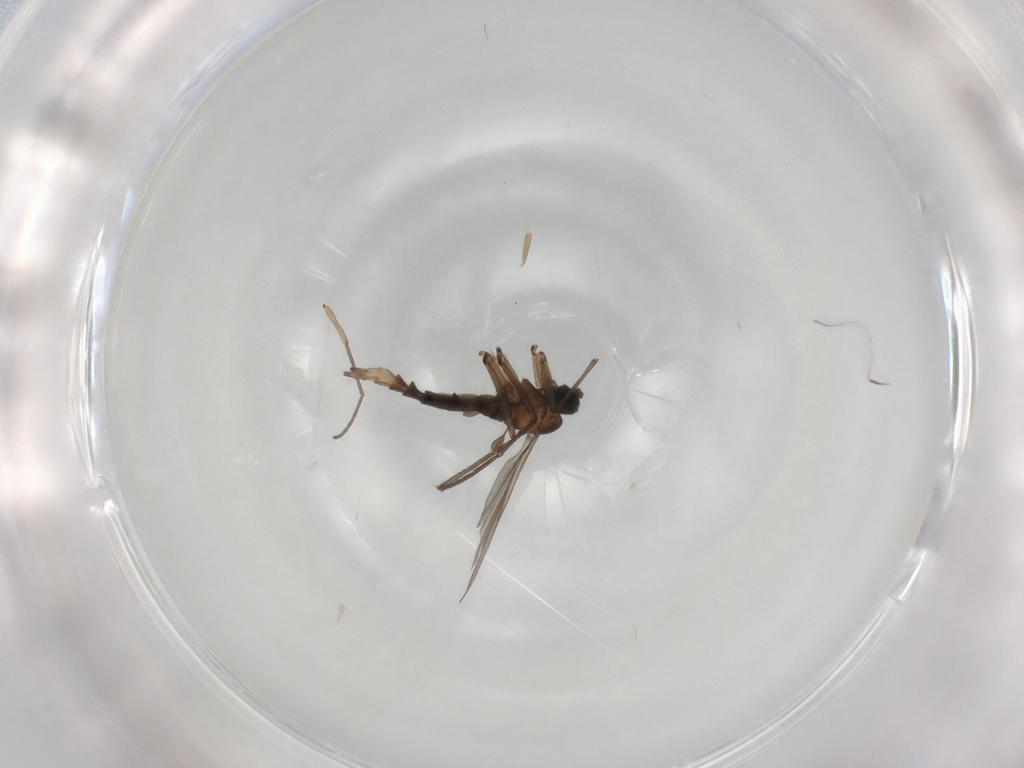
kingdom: Animalia
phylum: Arthropoda
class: Insecta
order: Diptera
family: Sciaridae
